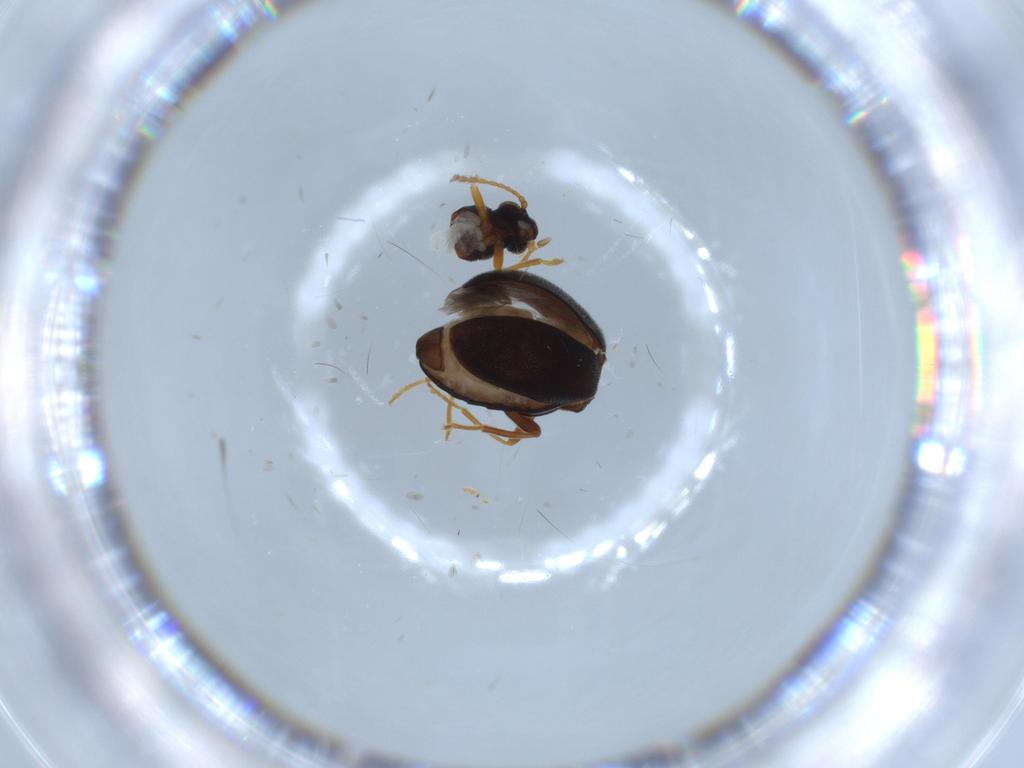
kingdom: Animalia
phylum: Arthropoda
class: Insecta
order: Coleoptera
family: Aderidae
